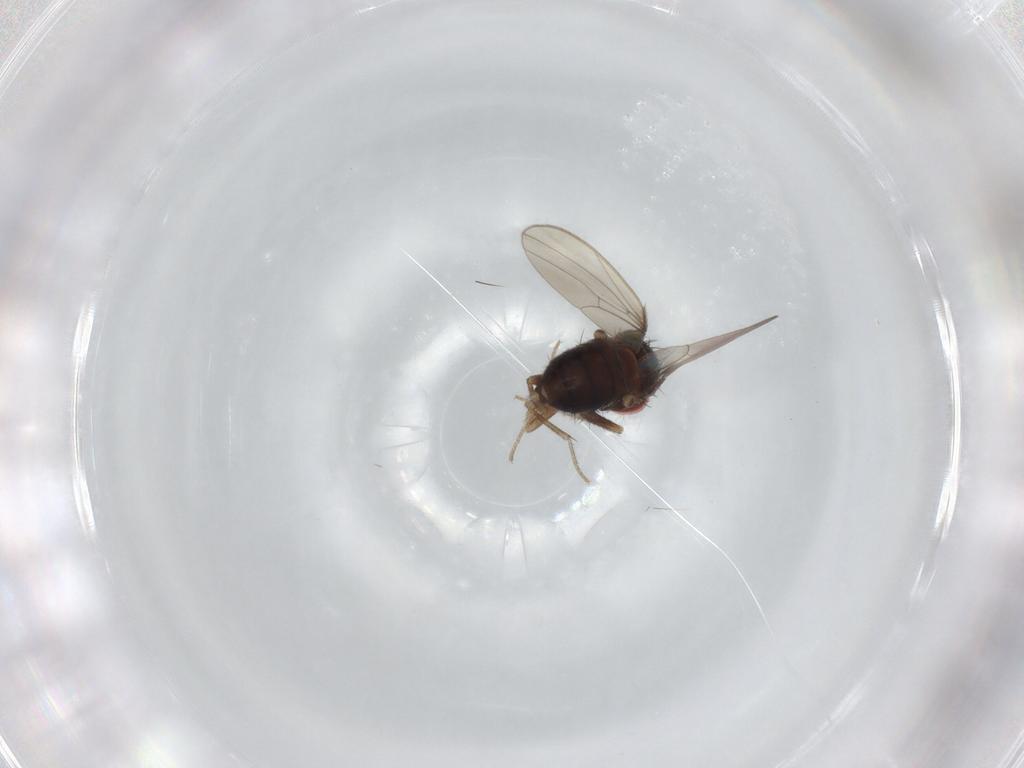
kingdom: Animalia
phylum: Arthropoda
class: Insecta
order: Diptera
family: Drosophilidae
